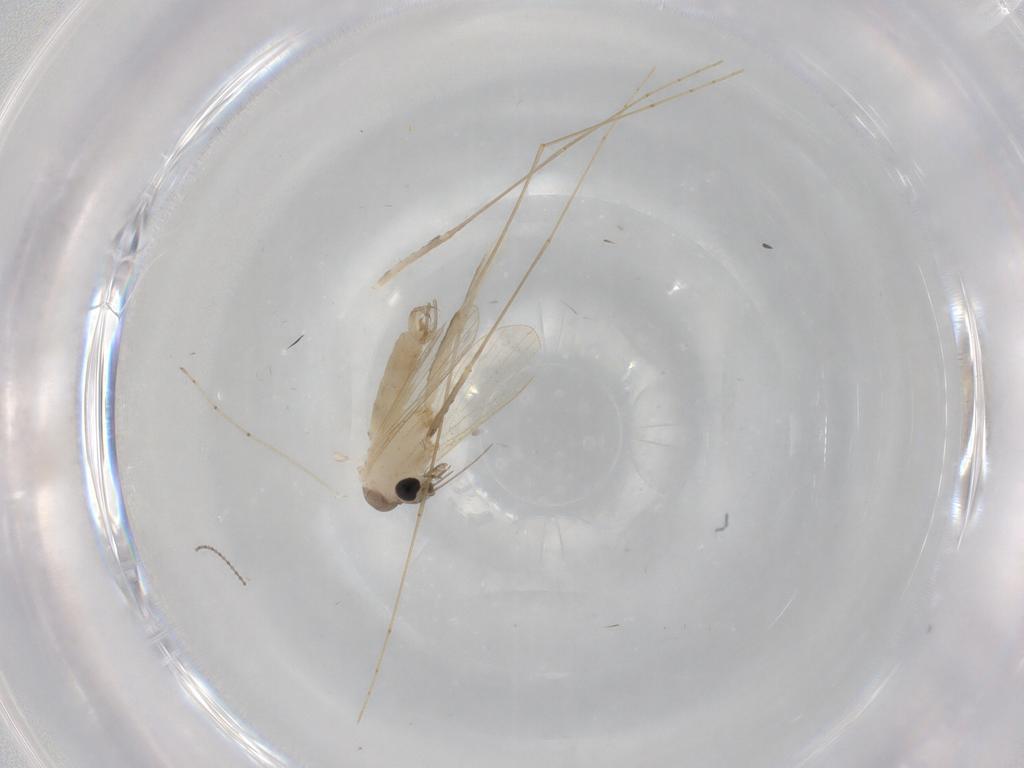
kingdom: Animalia
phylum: Arthropoda
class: Insecta
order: Diptera
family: Psychodidae
